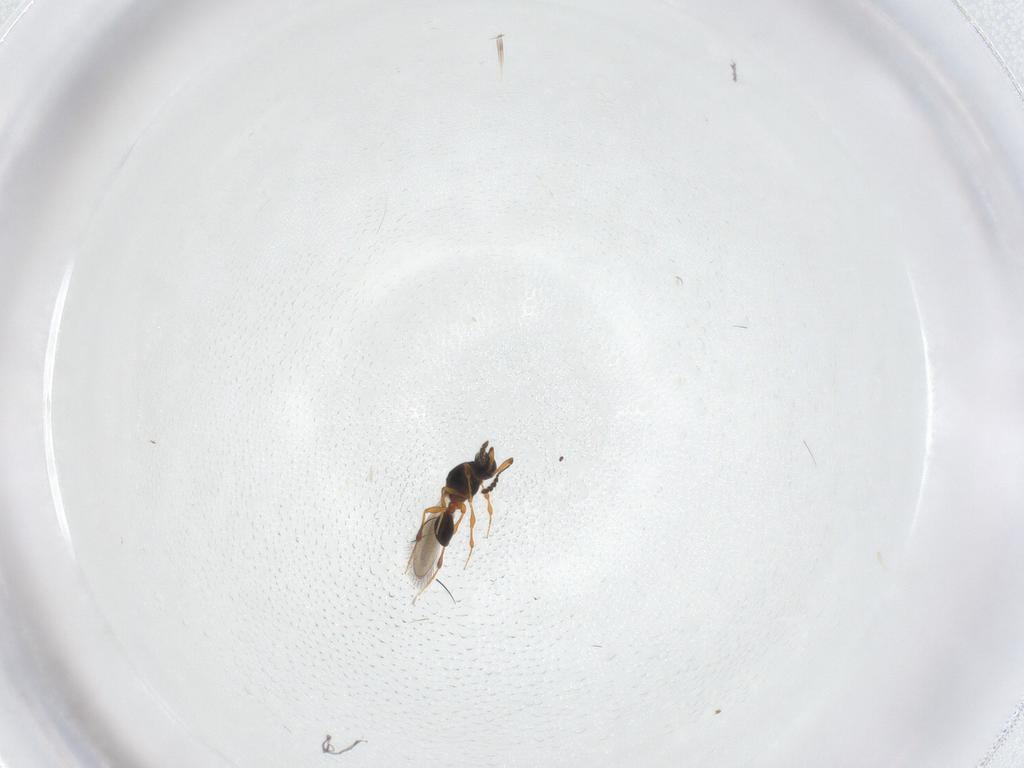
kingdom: Animalia
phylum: Arthropoda
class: Insecta
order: Hymenoptera
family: Platygastridae
